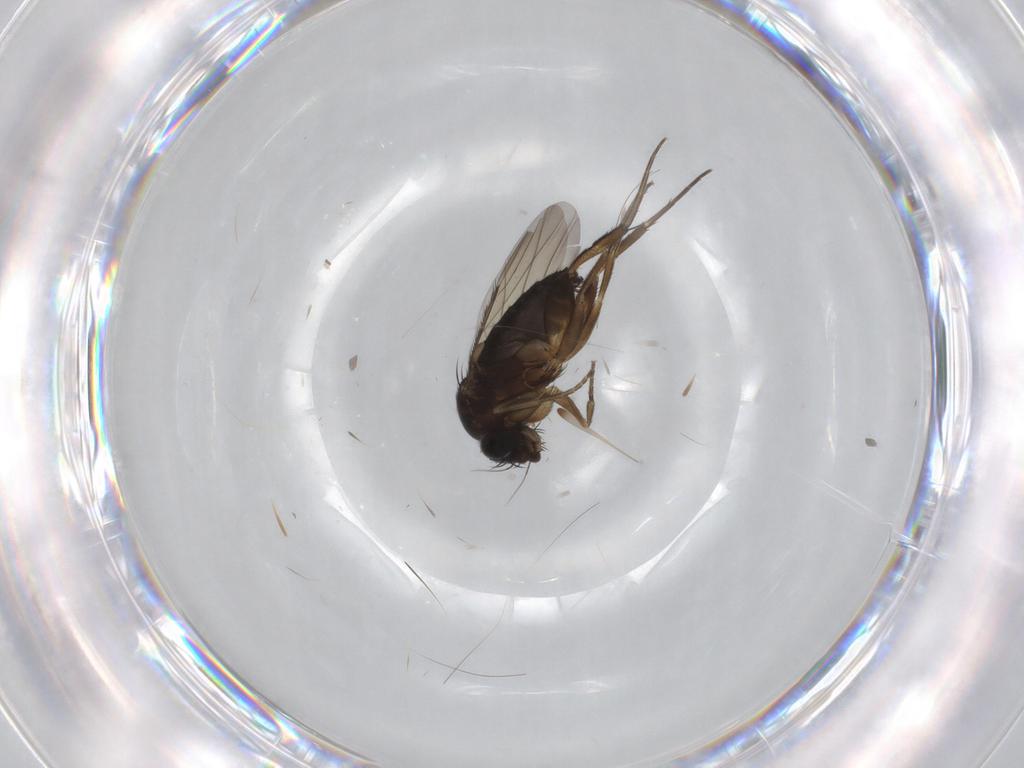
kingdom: Animalia
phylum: Arthropoda
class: Insecta
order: Diptera
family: Phoridae
